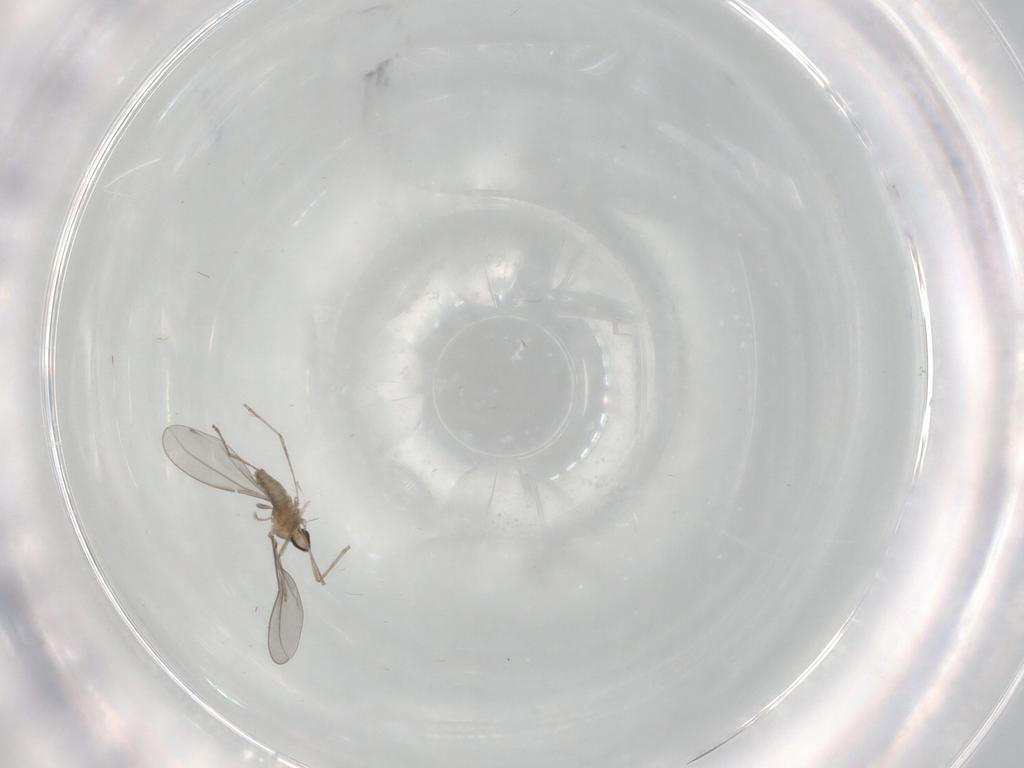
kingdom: Animalia
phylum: Arthropoda
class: Insecta
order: Diptera
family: Cecidomyiidae
